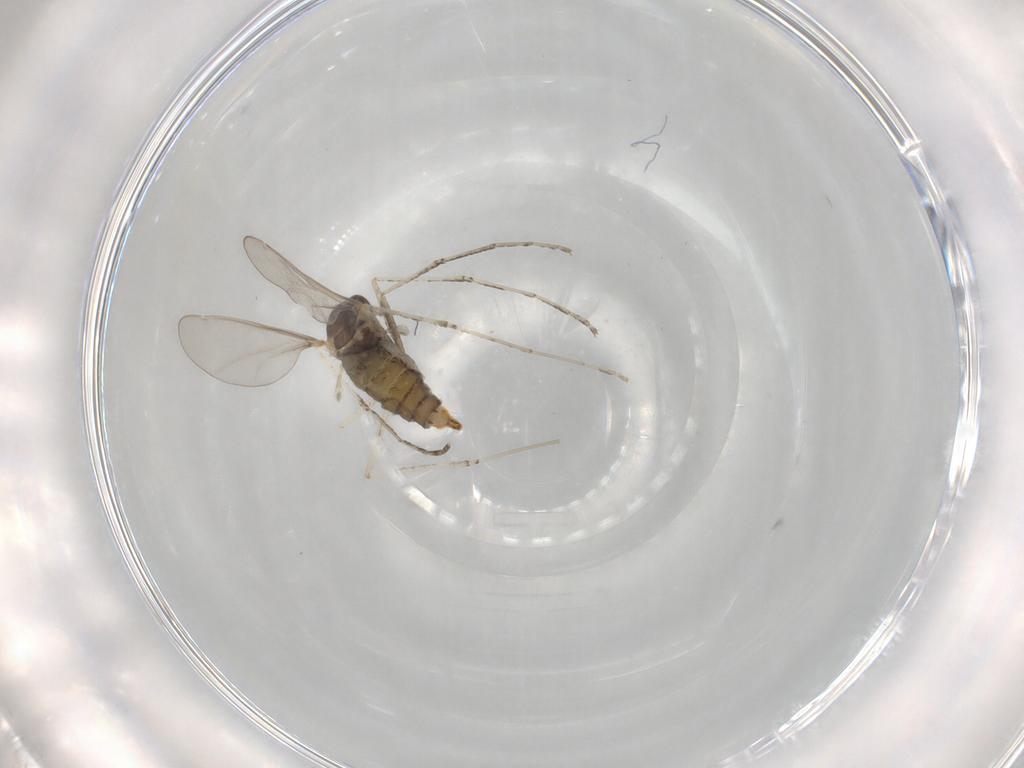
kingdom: Animalia
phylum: Arthropoda
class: Insecta
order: Diptera
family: Cecidomyiidae
